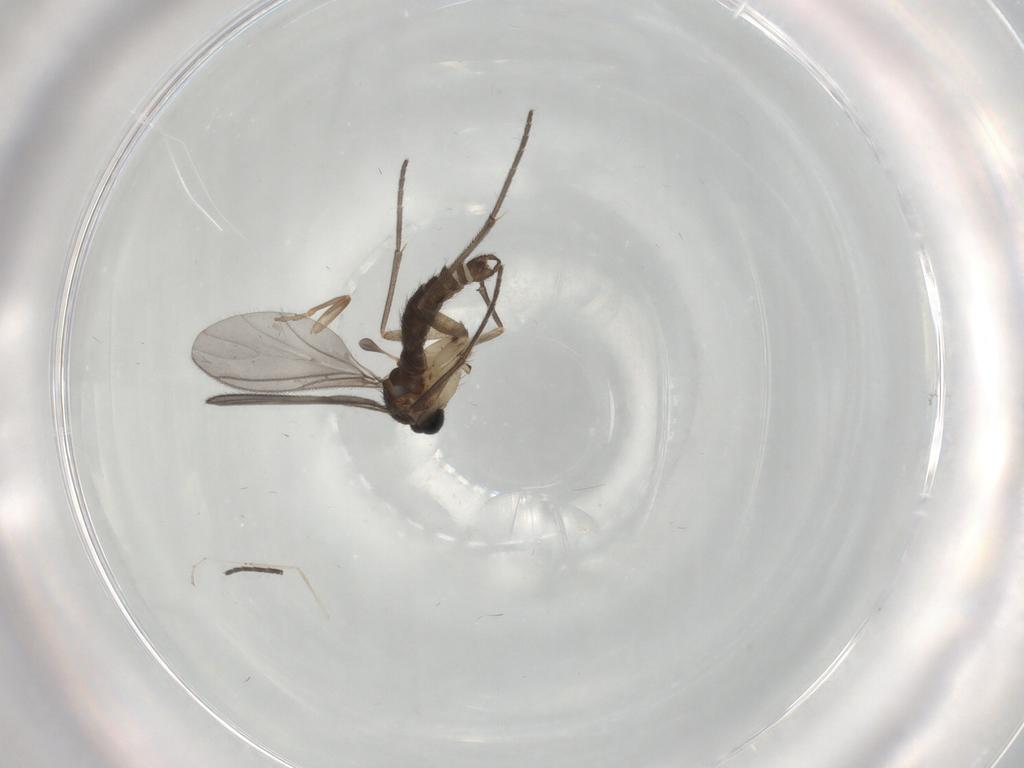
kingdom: Animalia
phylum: Arthropoda
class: Insecta
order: Diptera
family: Sciaridae
